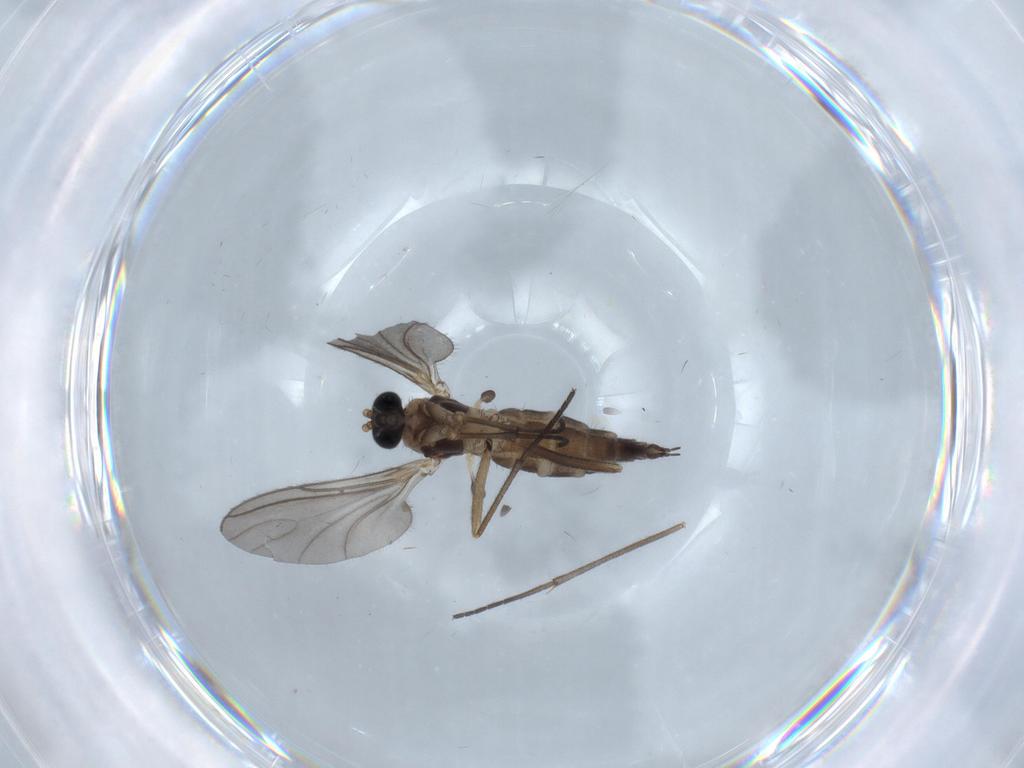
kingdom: Animalia
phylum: Arthropoda
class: Insecta
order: Diptera
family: Sciaridae
